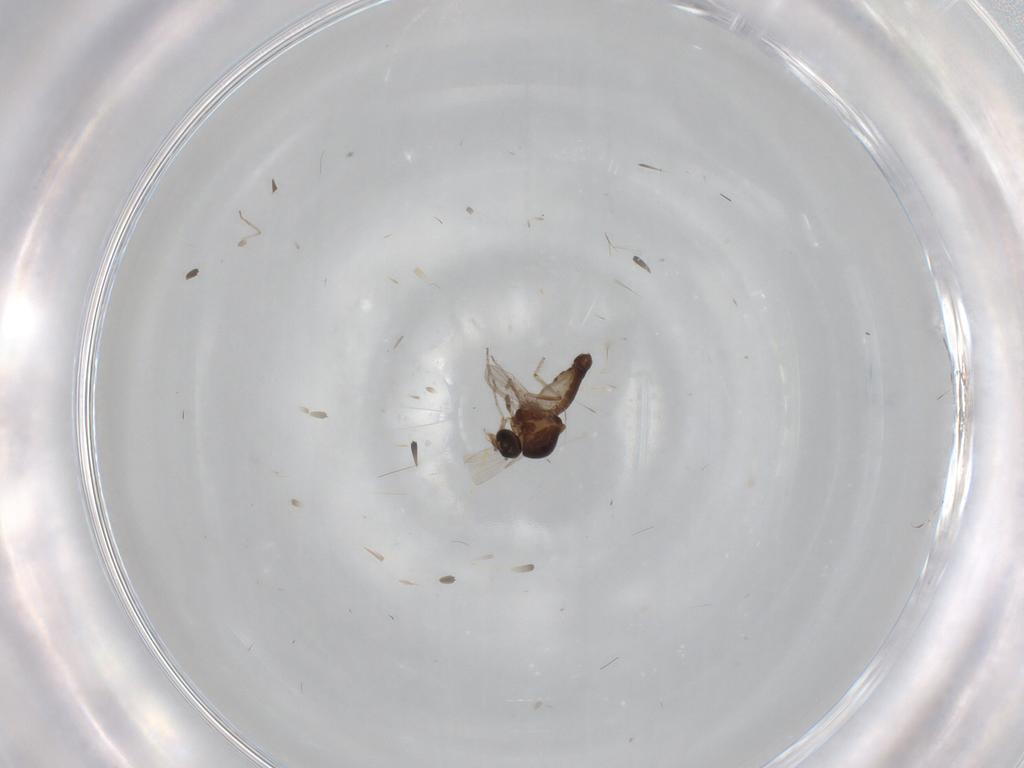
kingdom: Animalia
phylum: Arthropoda
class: Insecta
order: Diptera
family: Ceratopogonidae
